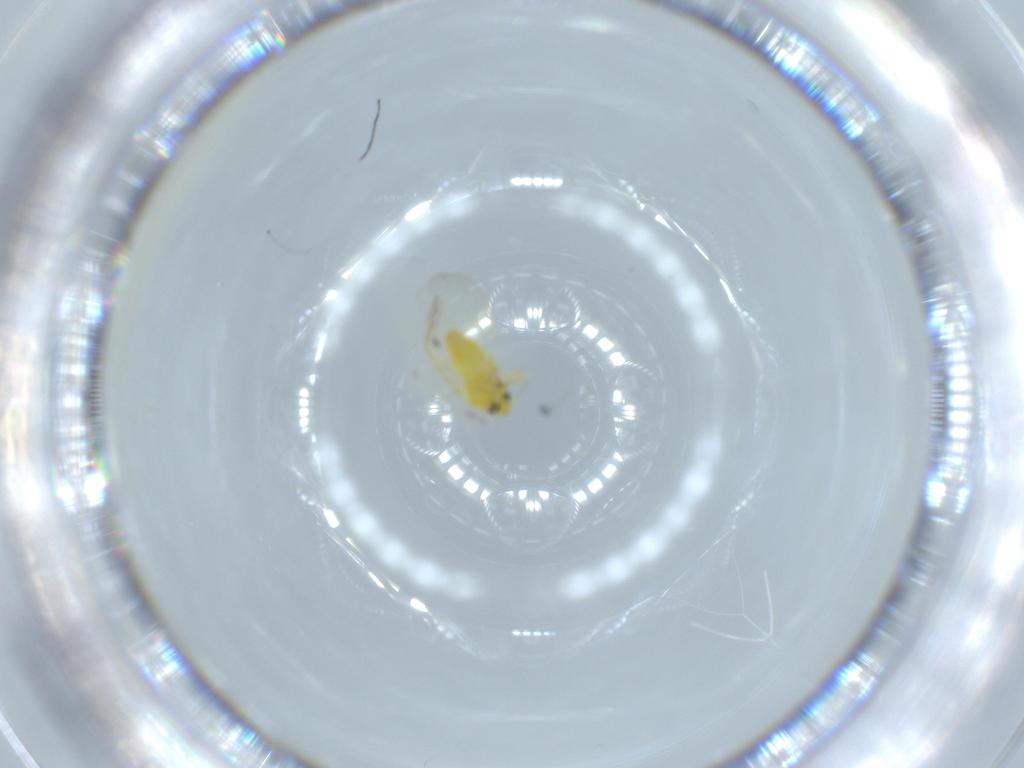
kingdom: Animalia
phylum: Arthropoda
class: Insecta
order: Hemiptera
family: Aleyrodidae
